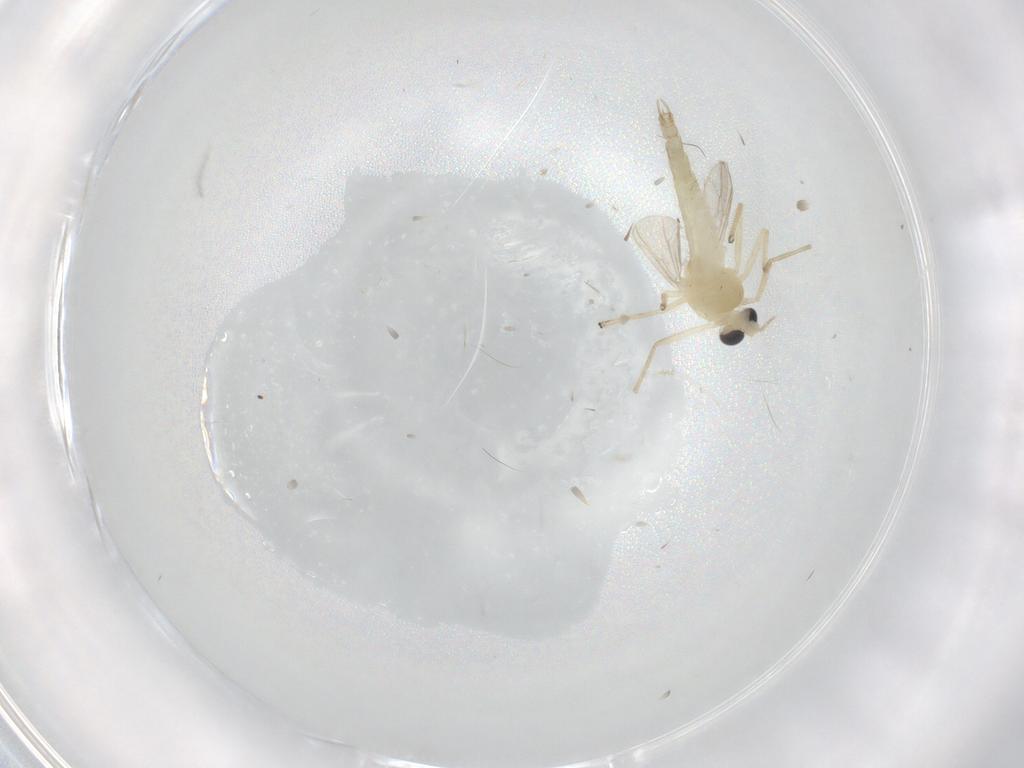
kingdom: Animalia
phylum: Arthropoda
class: Insecta
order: Diptera
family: Chironomidae
